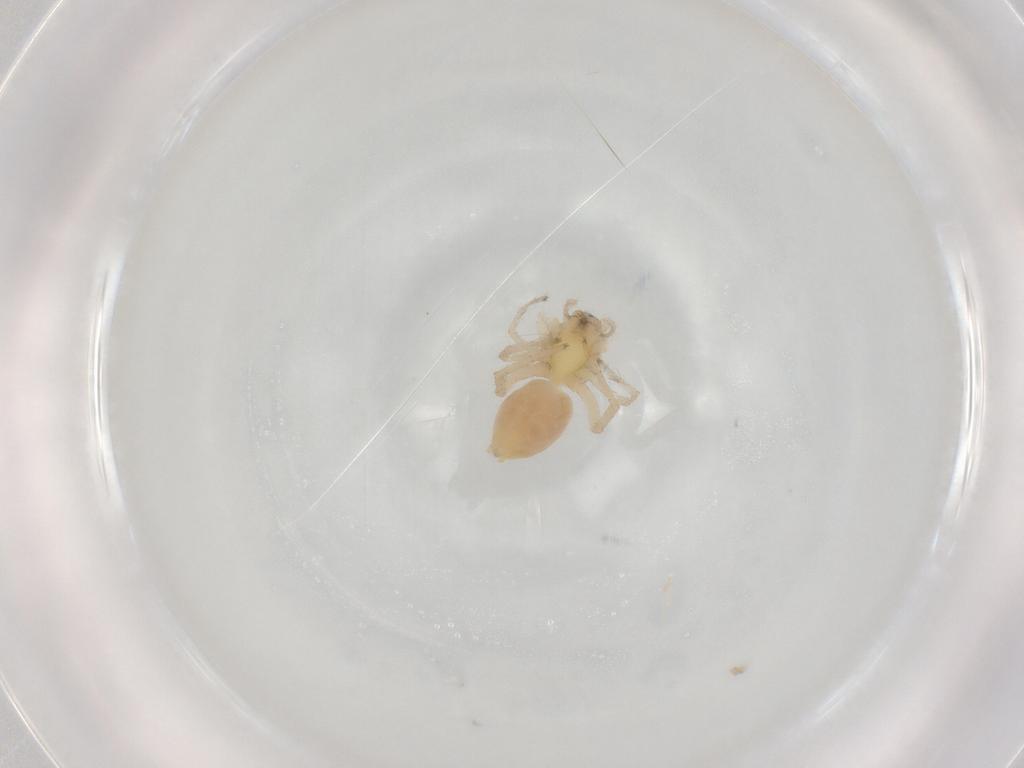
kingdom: Animalia
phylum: Arthropoda
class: Arachnida
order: Araneae
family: Anyphaenidae
